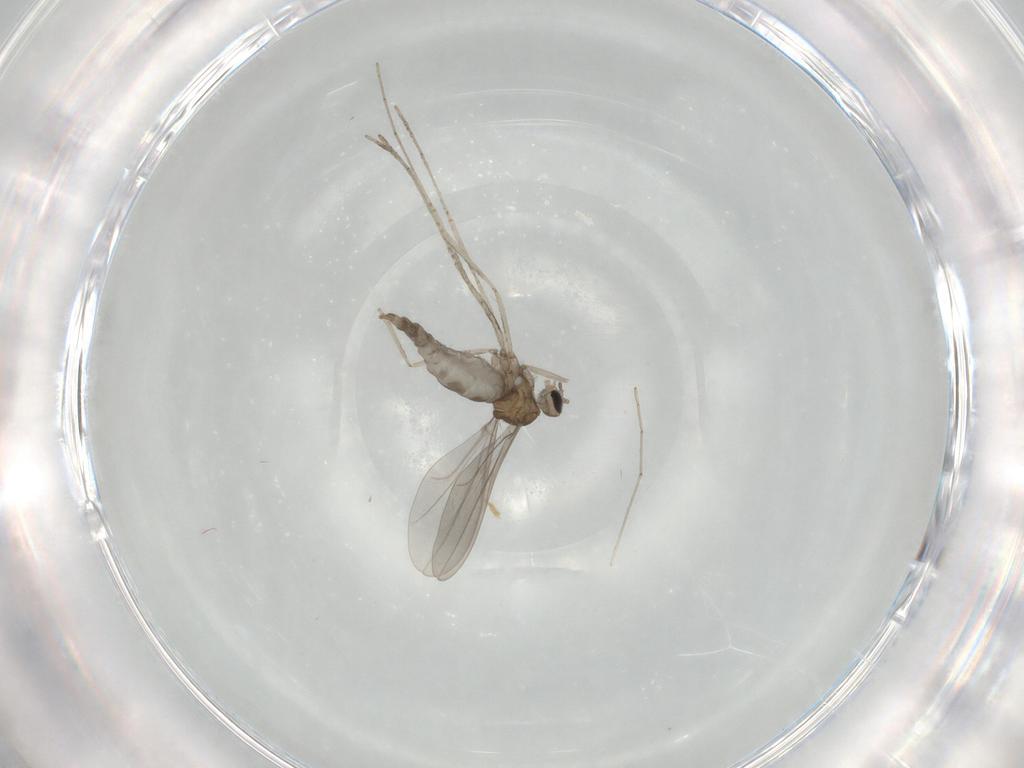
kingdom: Animalia
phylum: Arthropoda
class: Insecta
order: Diptera
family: Cecidomyiidae
